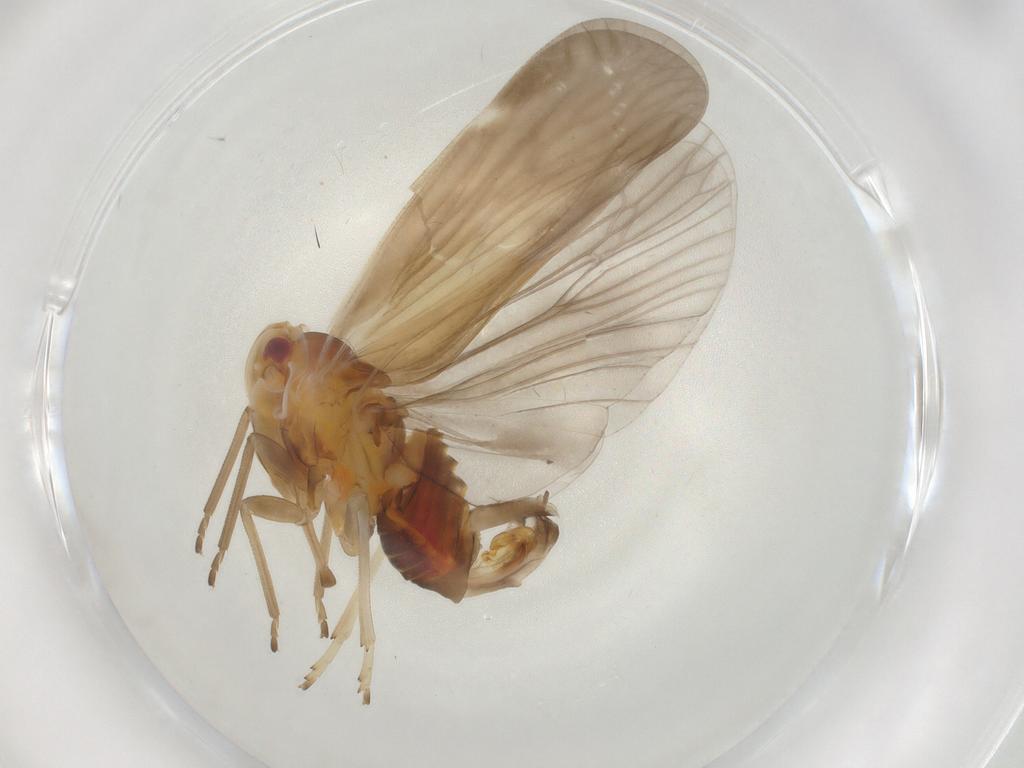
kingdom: Animalia
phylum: Arthropoda
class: Insecta
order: Hemiptera
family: Derbidae
